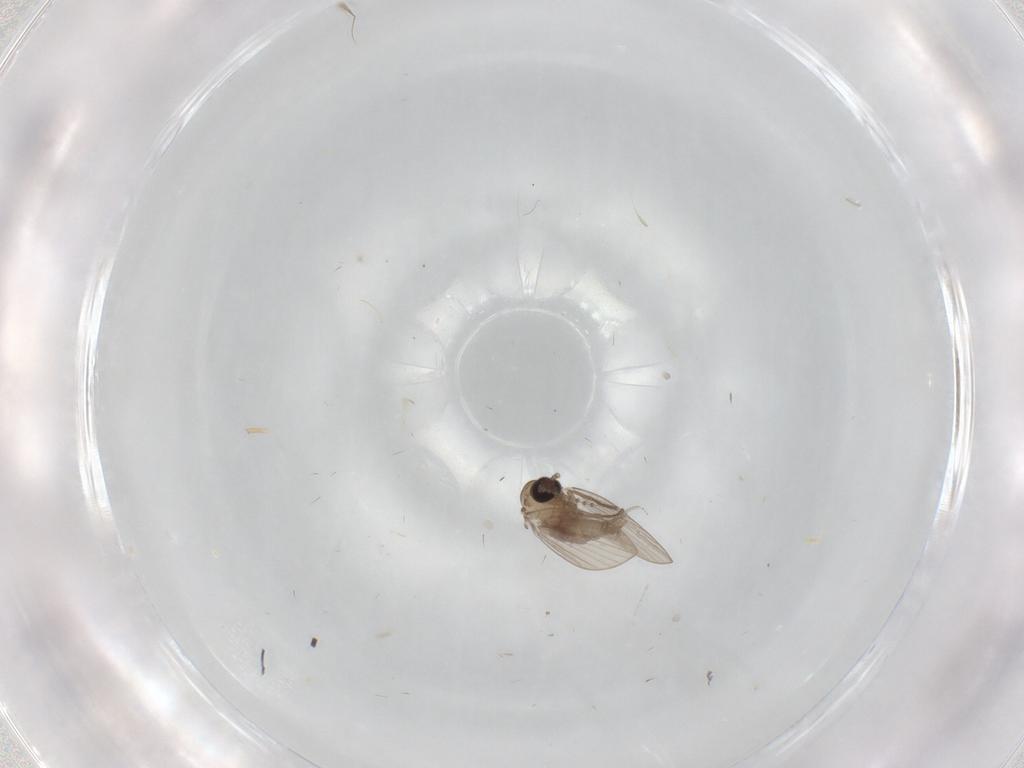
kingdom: Animalia
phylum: Arthropoda
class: Insecta
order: Diptera
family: Psychodidae
